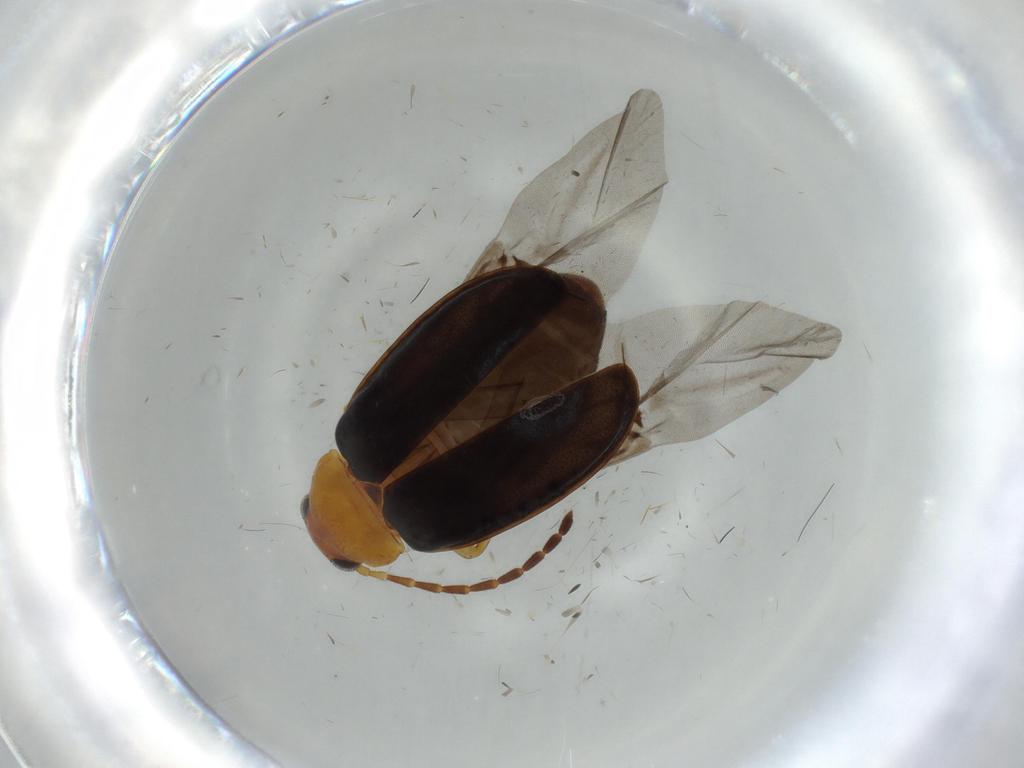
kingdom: Animalia
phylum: Arthropoda
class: Insecta
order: Coleoptera
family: Chrysomelidae
